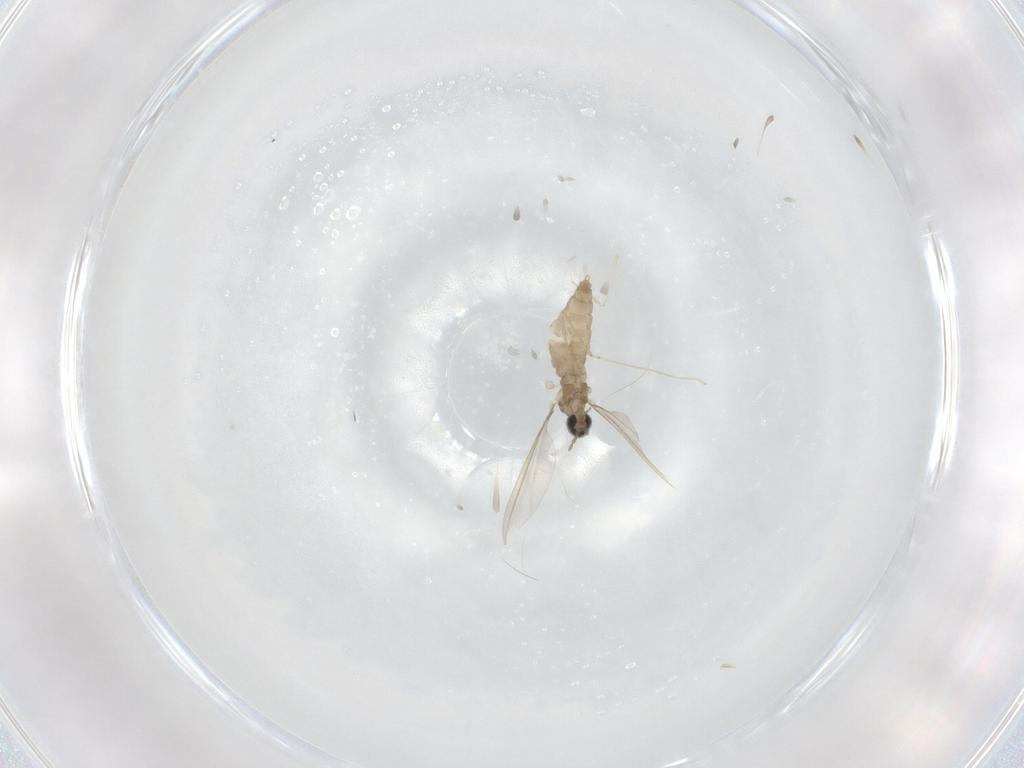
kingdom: Animalia
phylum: Arthropoda
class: Insecta
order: Diptera
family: Cecidomyiidae
